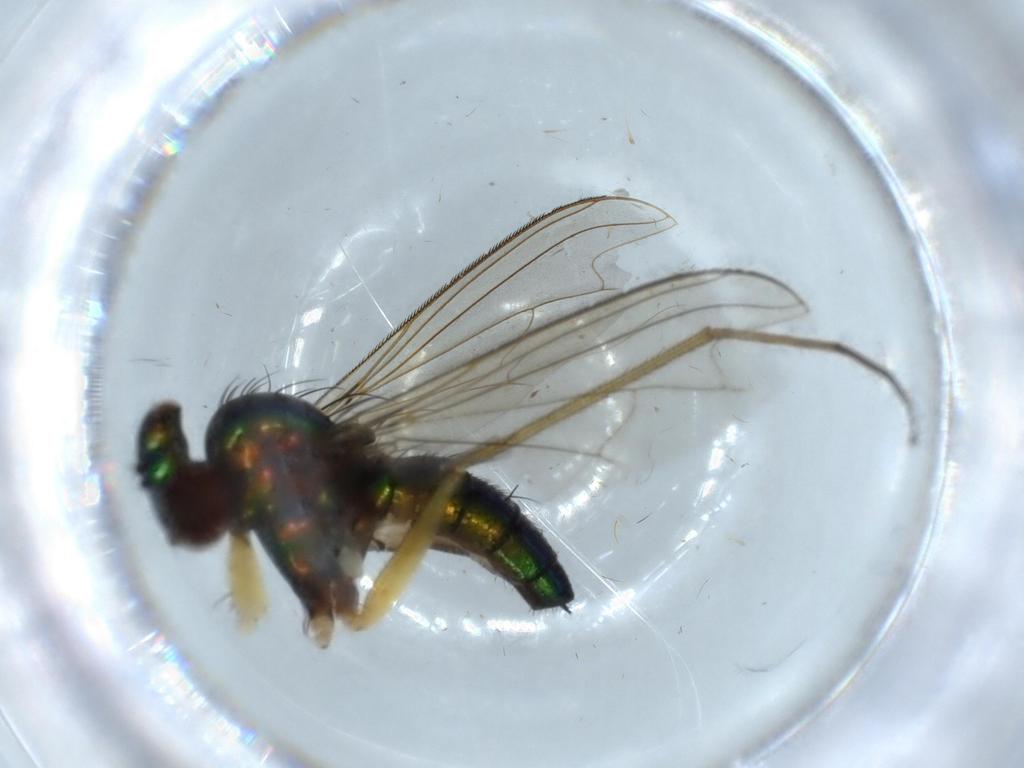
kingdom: Animalia
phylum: Arthropoda
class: Insecta
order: Diptera
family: Dolichopodidae
